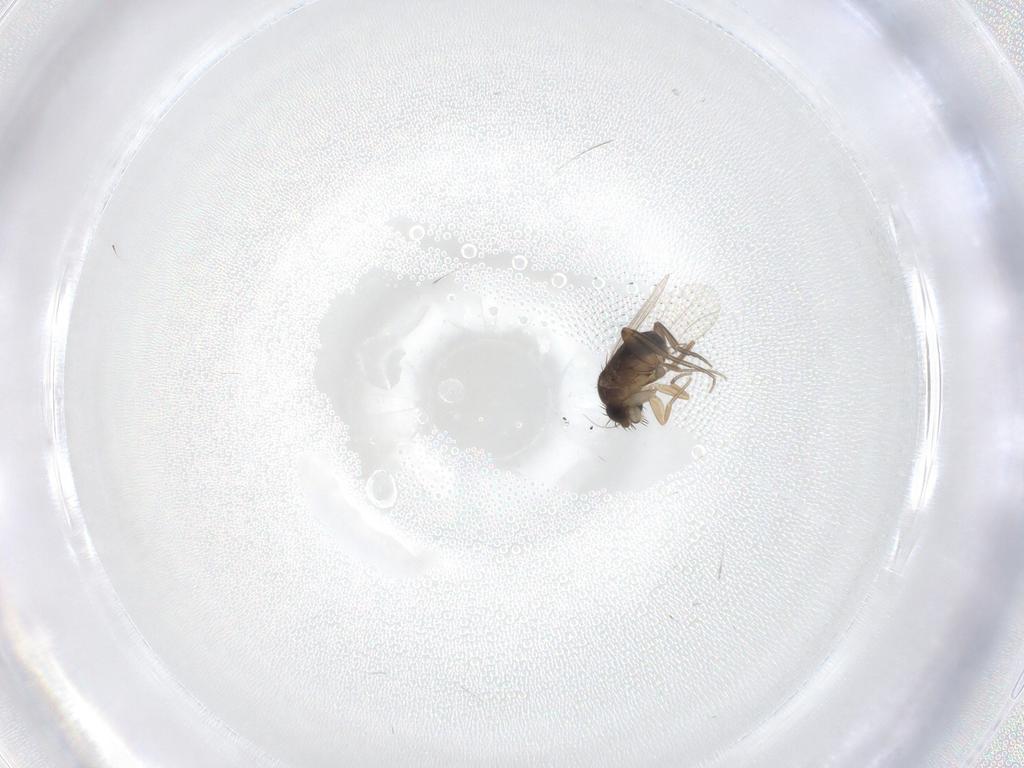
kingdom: Animalia
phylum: Arthropoda
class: Insecta
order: Diptera
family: Phoridae
